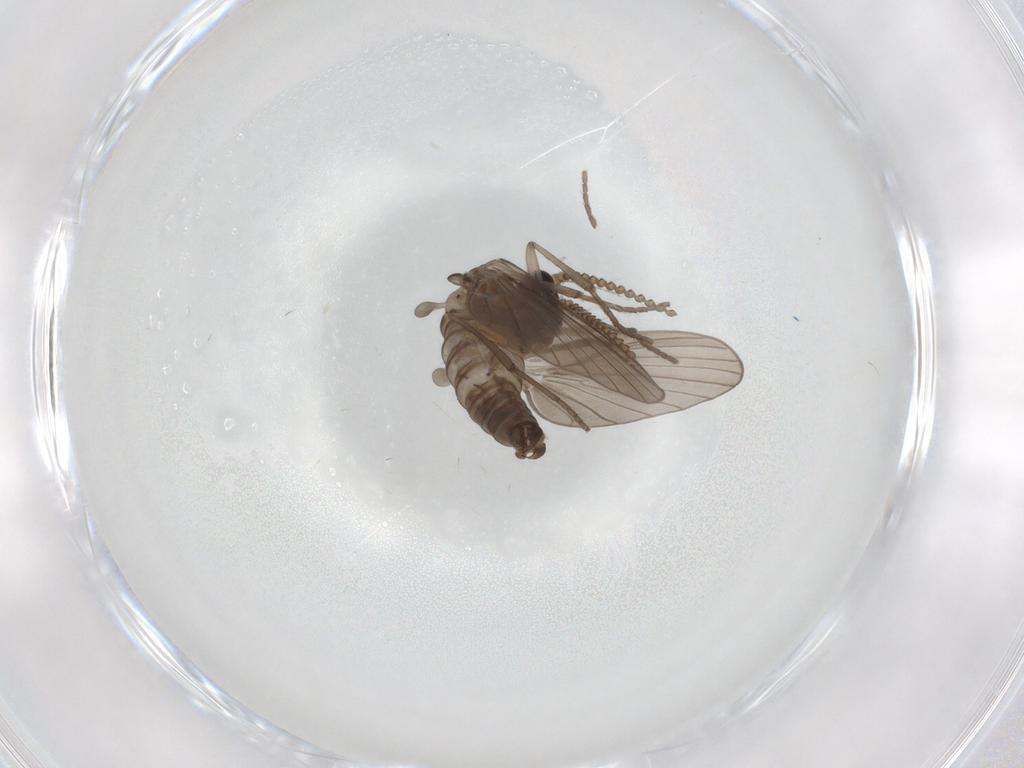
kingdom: Animalia
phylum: Arthropoda
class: Insecta
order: Diptera
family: Psychodidae
